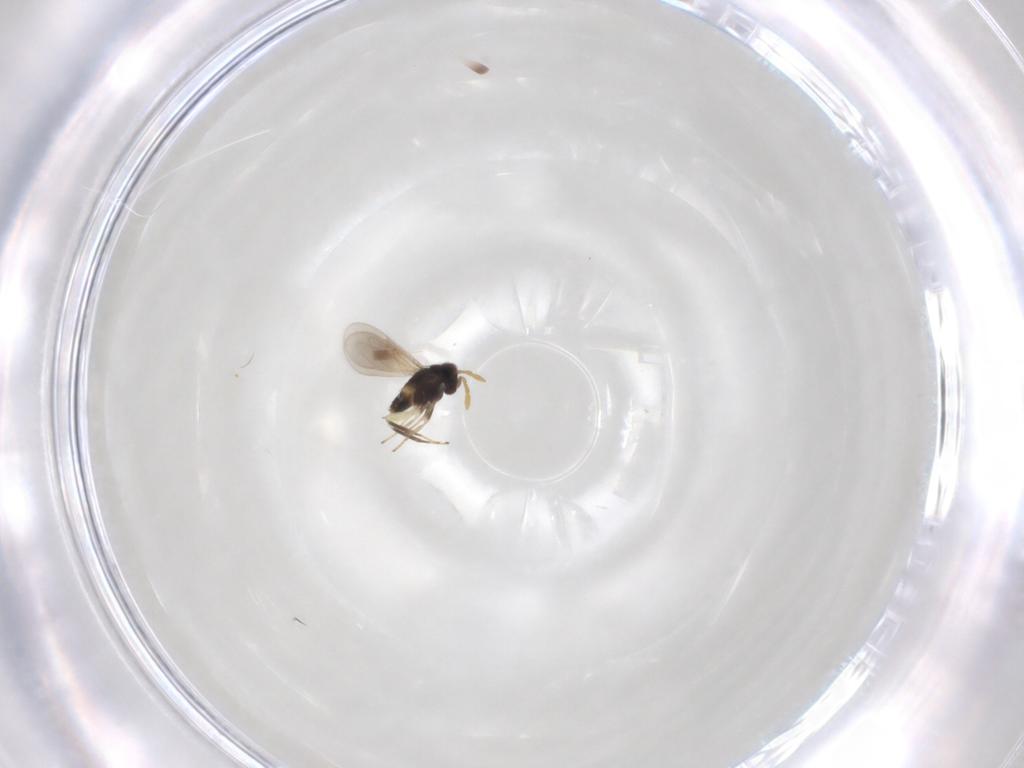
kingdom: Animalia
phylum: Arthropoda
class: Insecta
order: Hymenoptera
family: Aphelinidae
